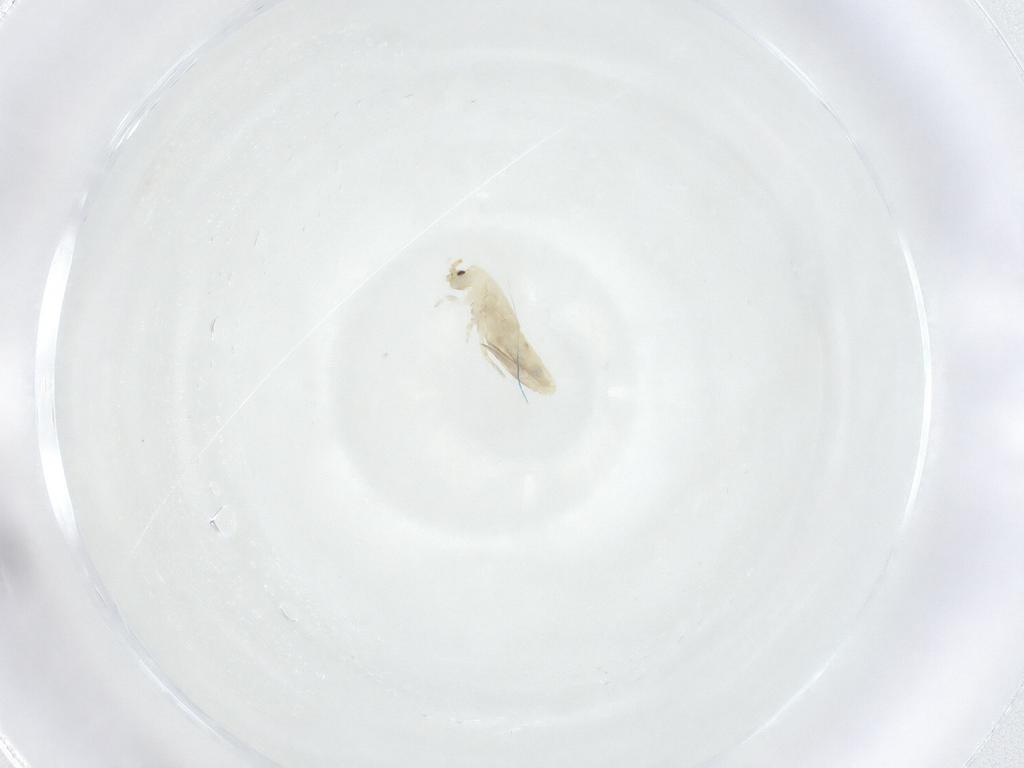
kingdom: Animalia
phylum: Arthropoda
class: Collembola
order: Entomobryomorpha
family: Entomobryidae
